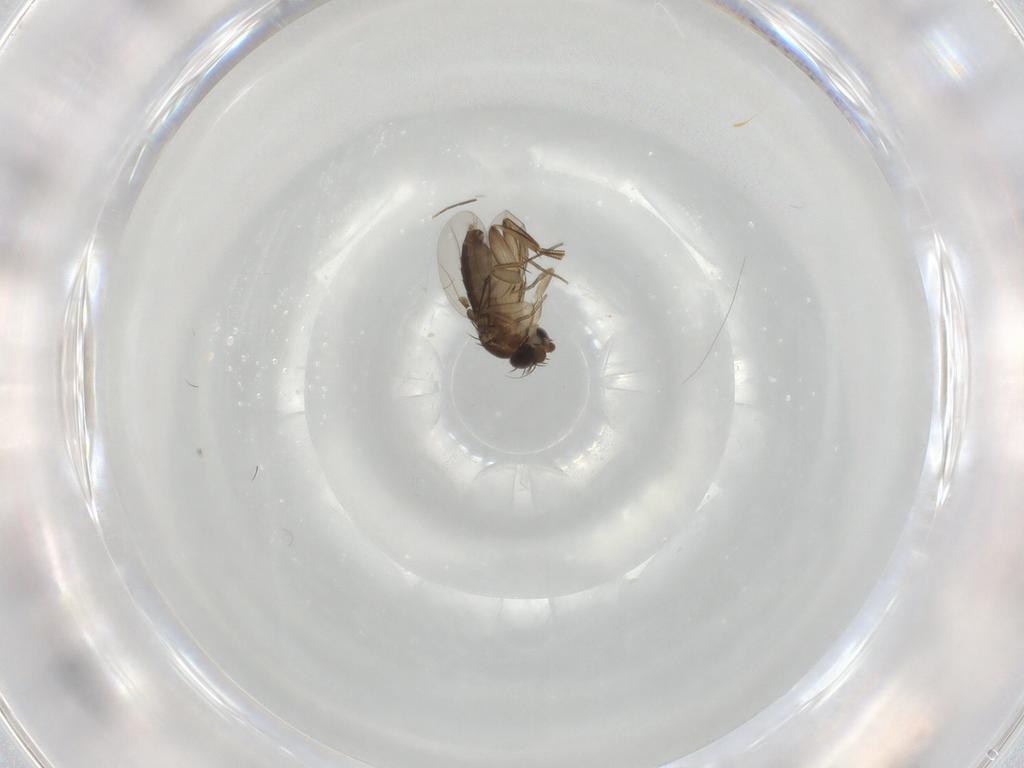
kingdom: Animalia
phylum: Arthropoda
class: Insecta
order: Diptera
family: Phoridae
